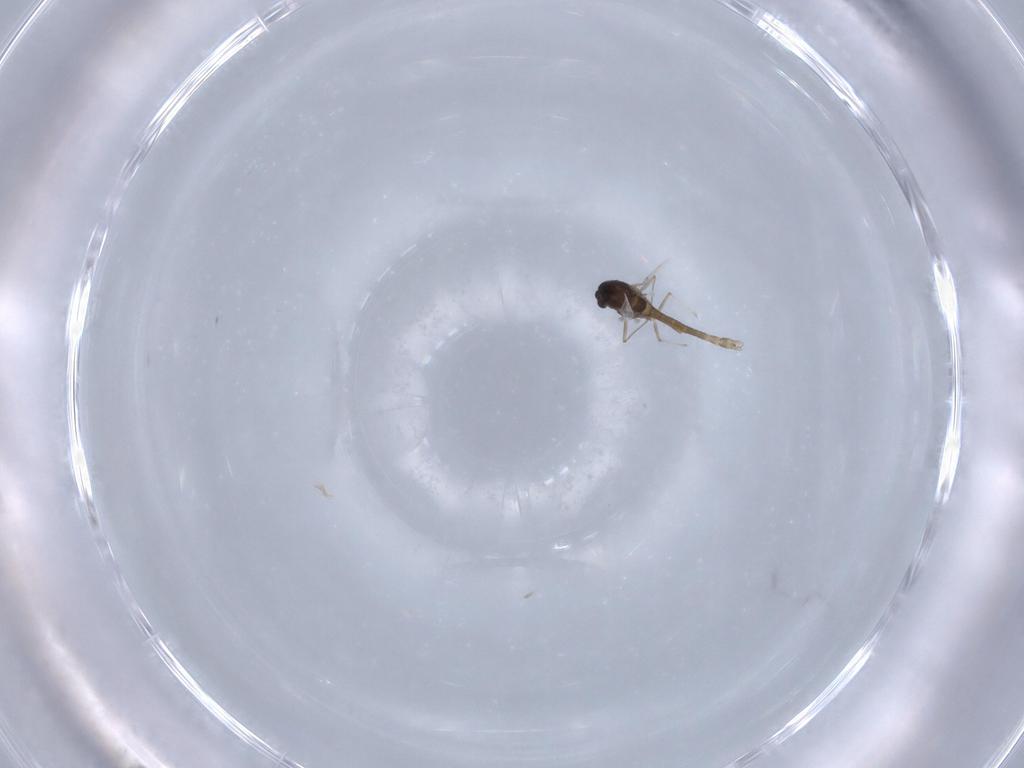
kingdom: Animalia
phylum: Arthropoda
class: Insecta
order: Diptera
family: Chironomidae
